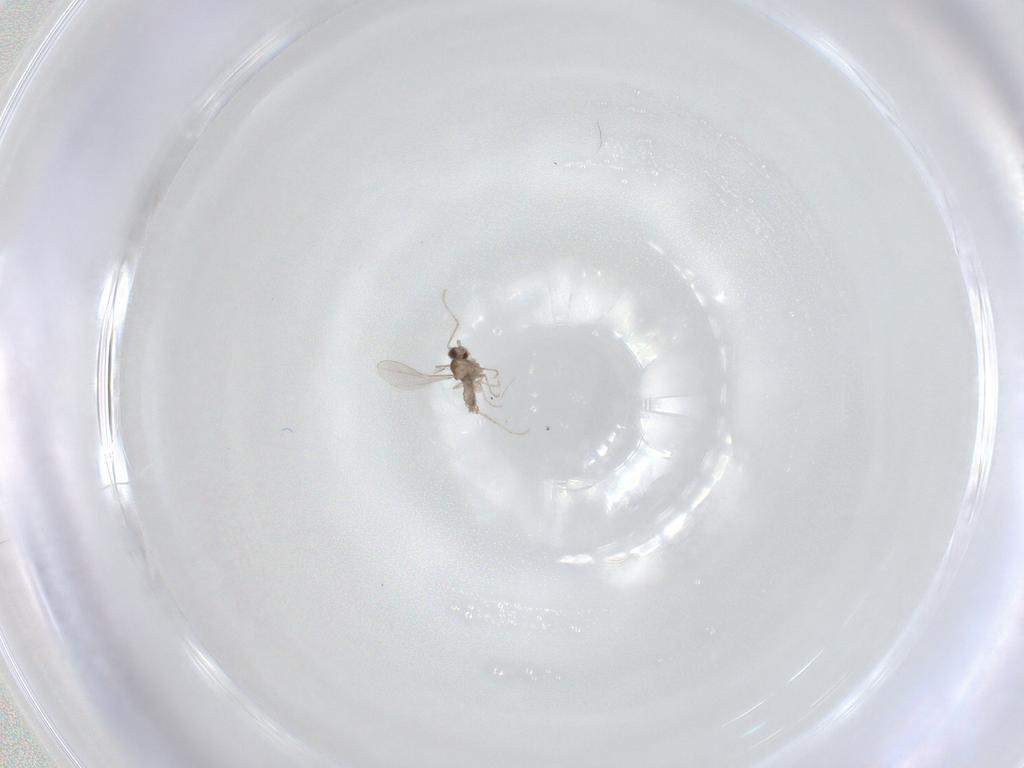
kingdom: Animalia
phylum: Arthropoda
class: Insecta
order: Diptera
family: Cecidomyiidae
